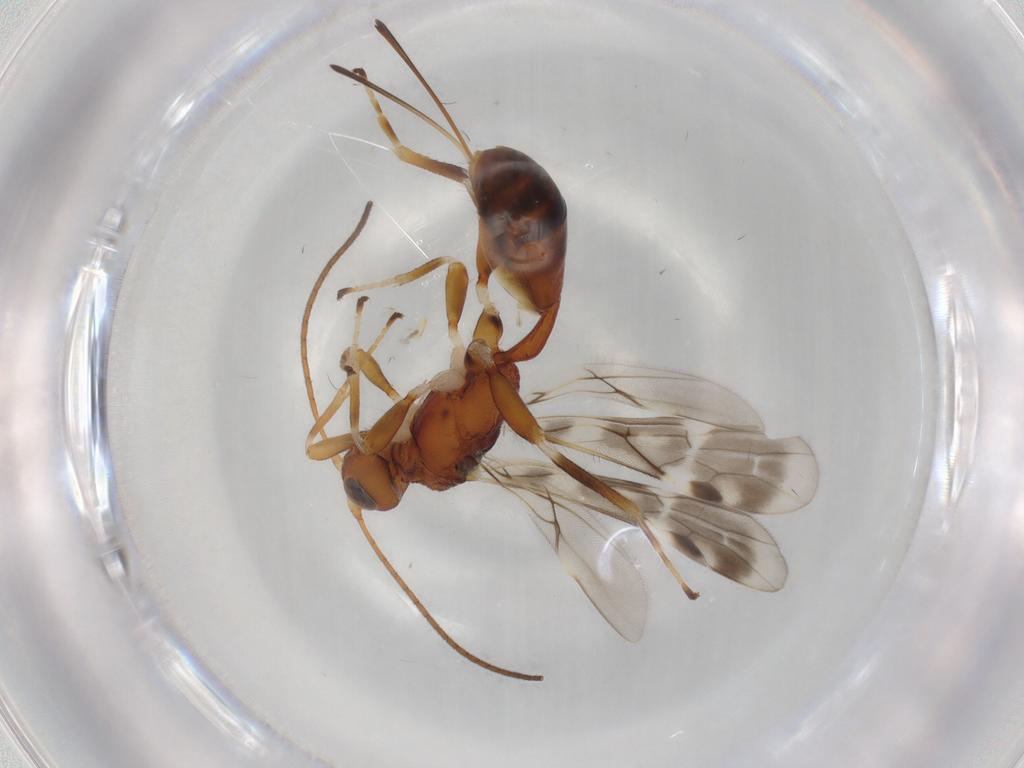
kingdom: Animalia
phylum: Arthropoda
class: Insecta
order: Hymenoptera
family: Braconidae
